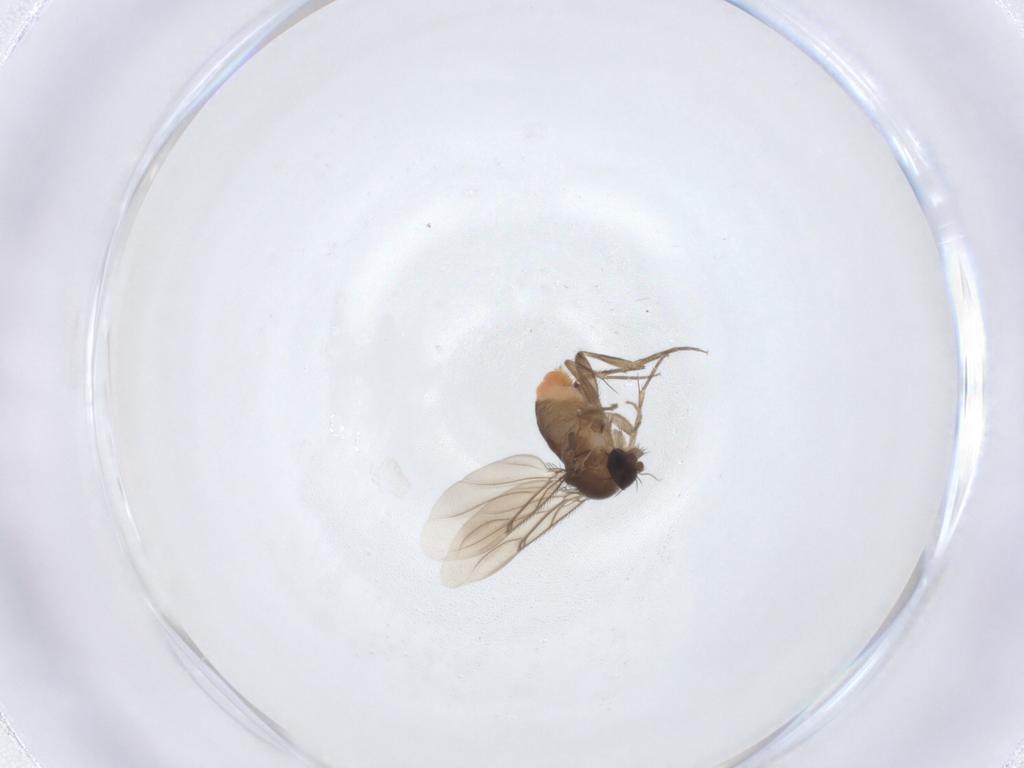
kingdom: Animalia
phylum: Arthropoda
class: Insecta
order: Diptera
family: Phoridae
